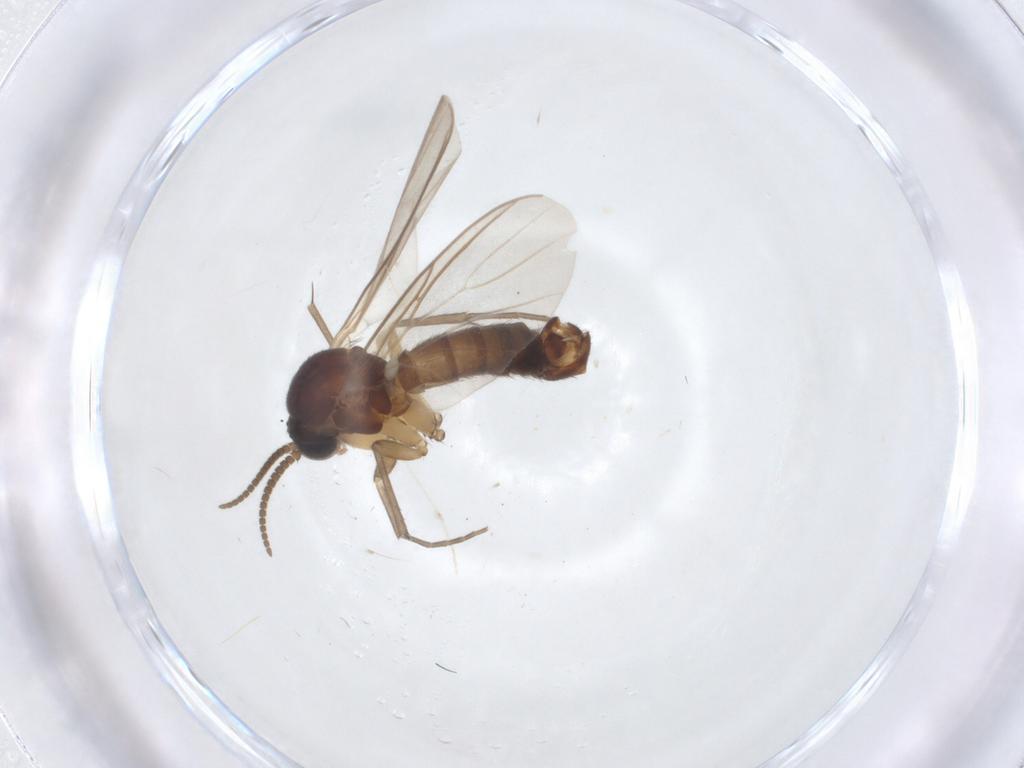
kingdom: Animalia
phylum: Arthropoda
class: Insecta
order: Diptera
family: Mycetophilidae
